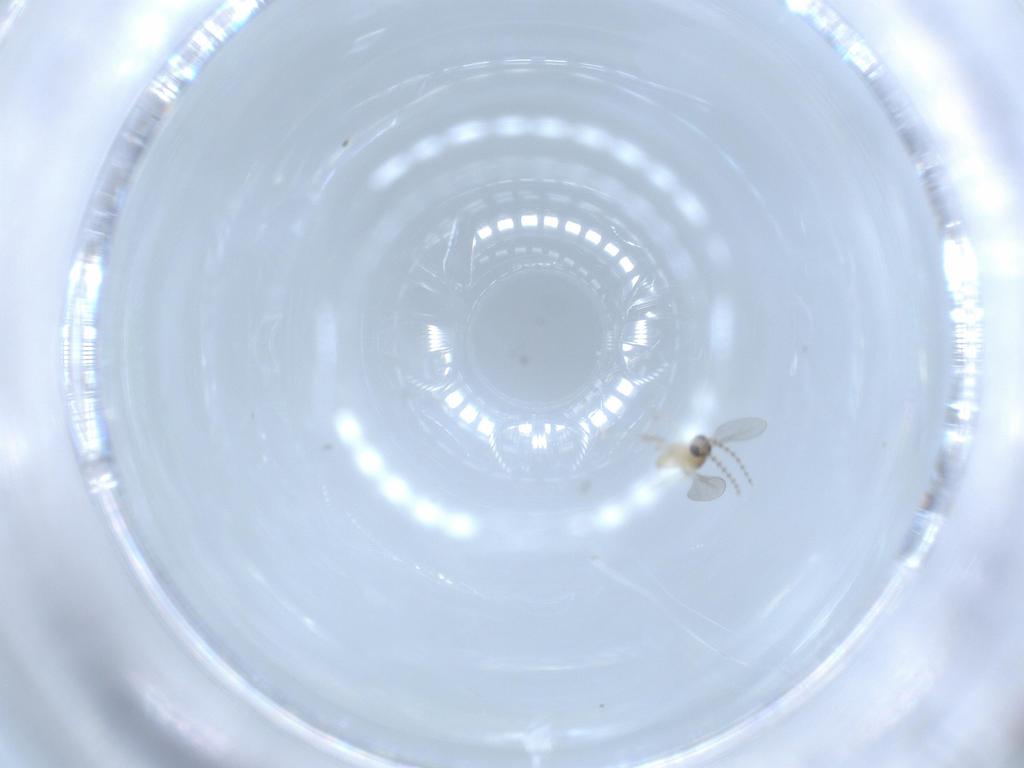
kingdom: Animalia
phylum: Arthropoda
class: Insecta
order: Diptera
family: Cecidomyiidae
